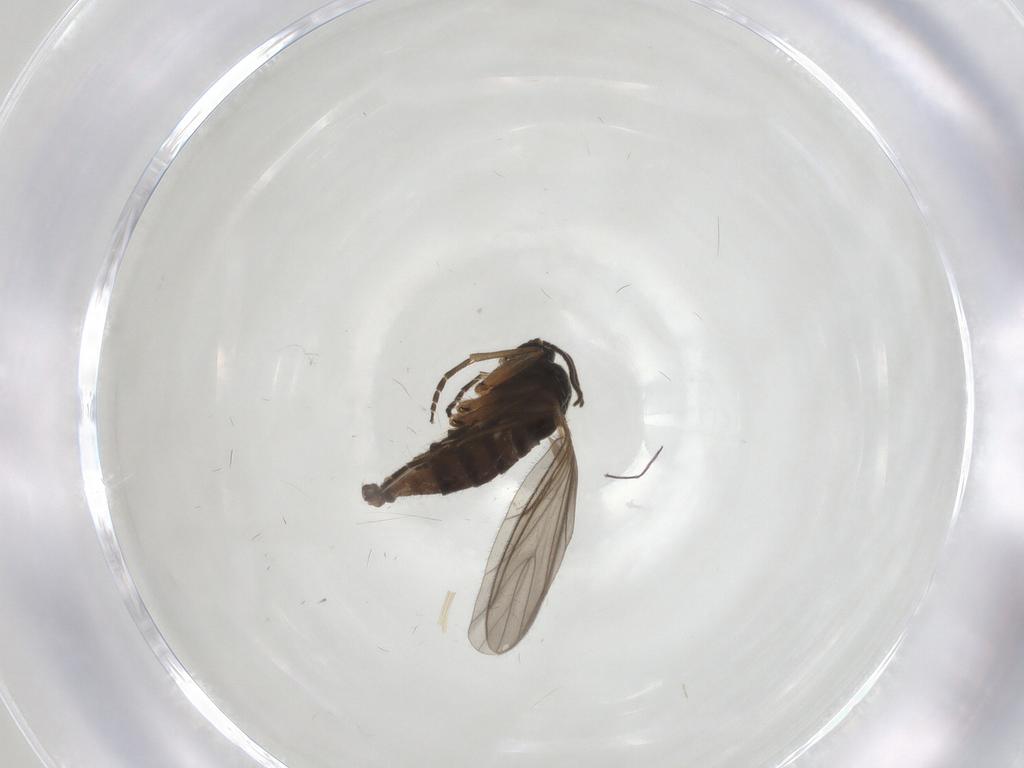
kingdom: Animalia
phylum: Arthropoda
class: Insecta
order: Diptera
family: Sciaridae
